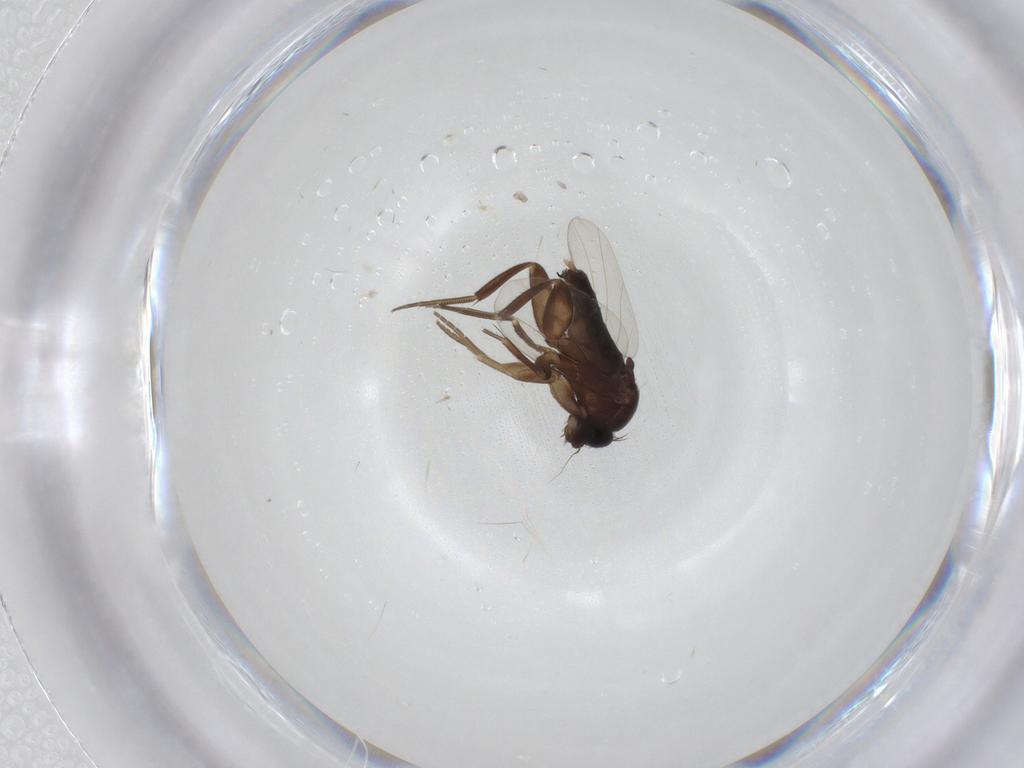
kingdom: Animalia
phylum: Arthropoda
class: Insecta
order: Diptera
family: Phoridae
